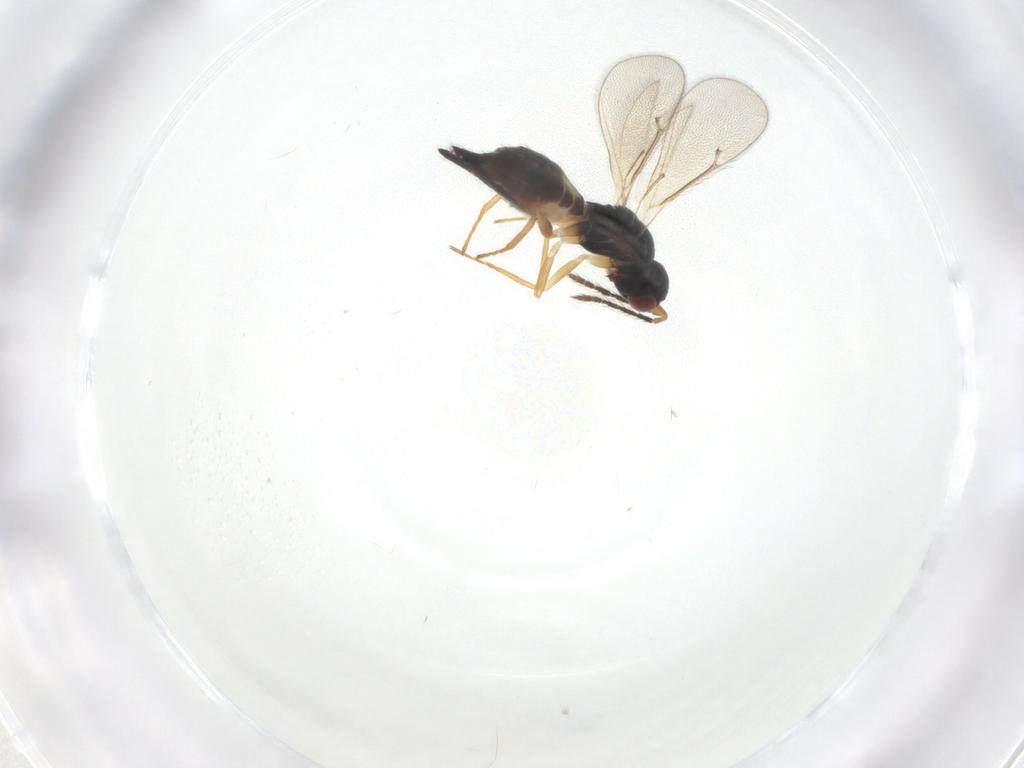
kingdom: Animalia
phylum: Arthropoda
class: Insecta
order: Hymenoptera
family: Eulophidae
